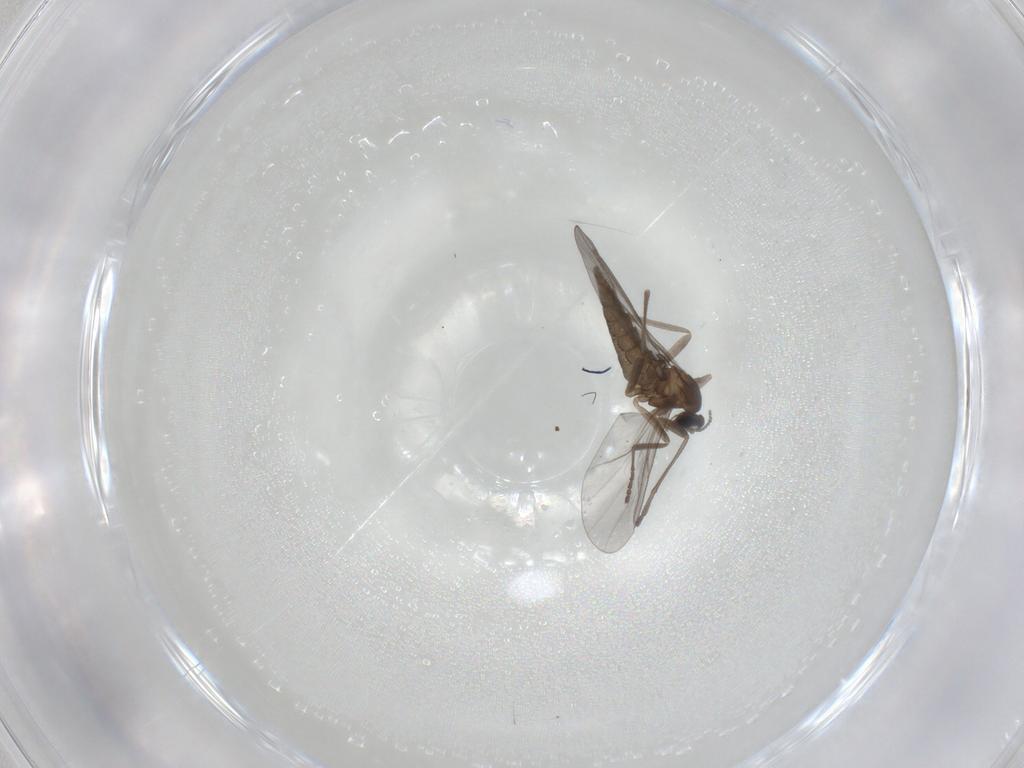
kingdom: Animalia
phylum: Arthropoda
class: Insecta
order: Diptera
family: Cecidomyiidae
